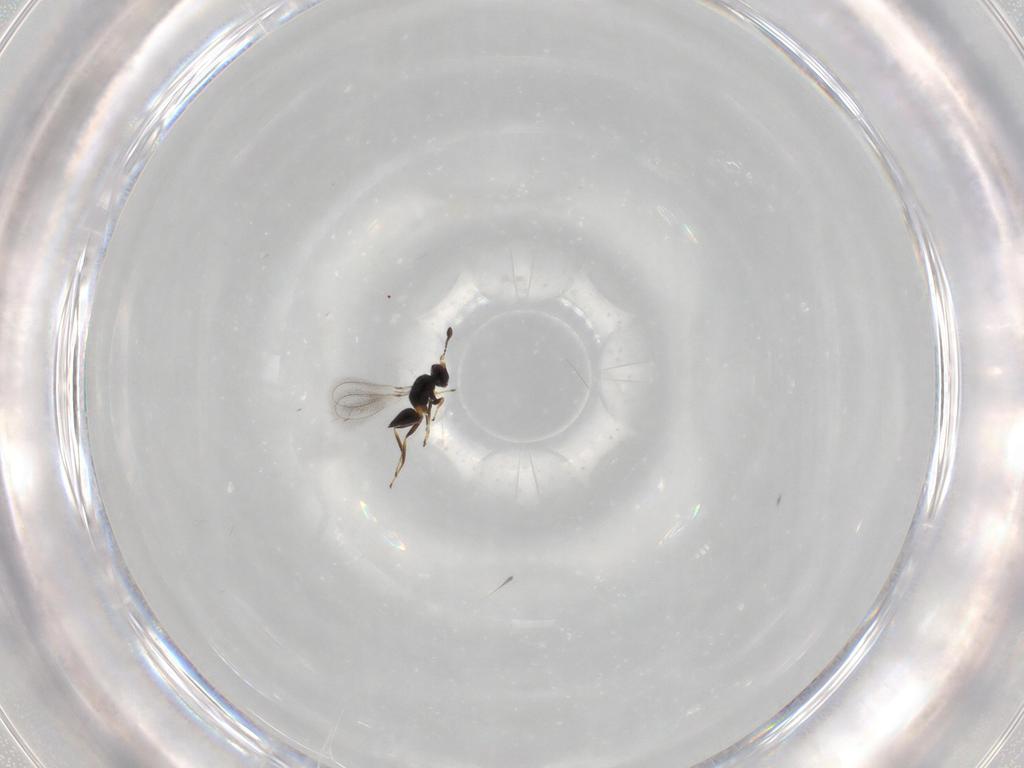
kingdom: Animalia
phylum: Arthropoda
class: Insecta
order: Hymenoptera
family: Mymaridae
